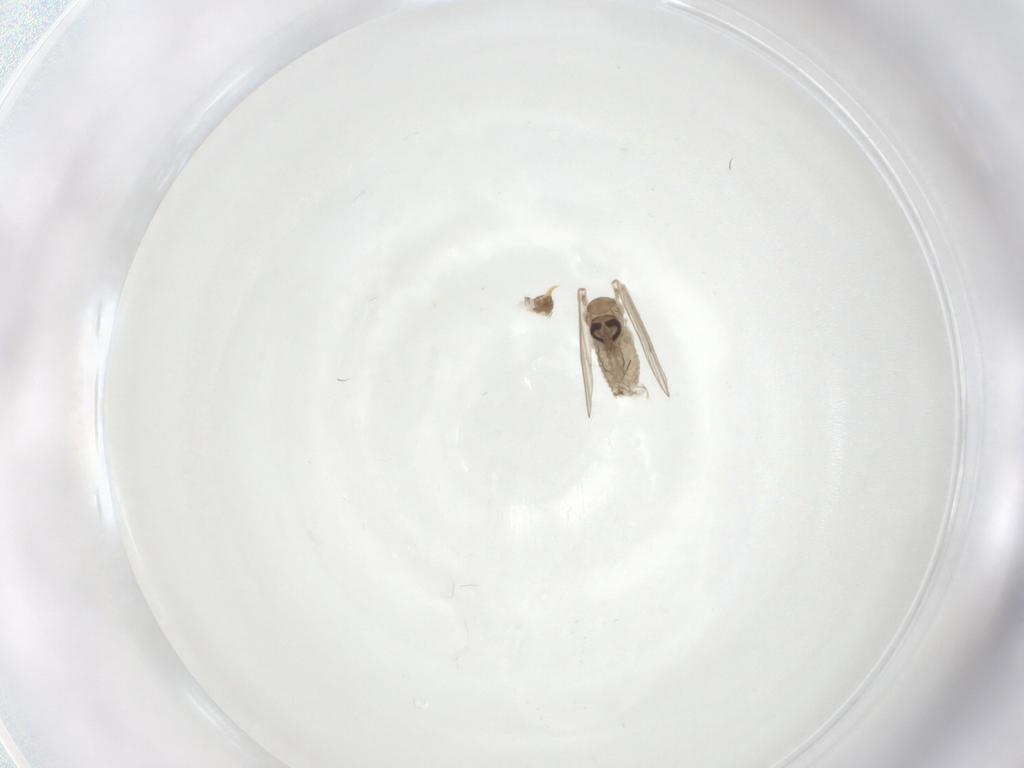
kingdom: Animalia
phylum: Arthropoda
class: Insecta
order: Diptera
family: Psychodidae
